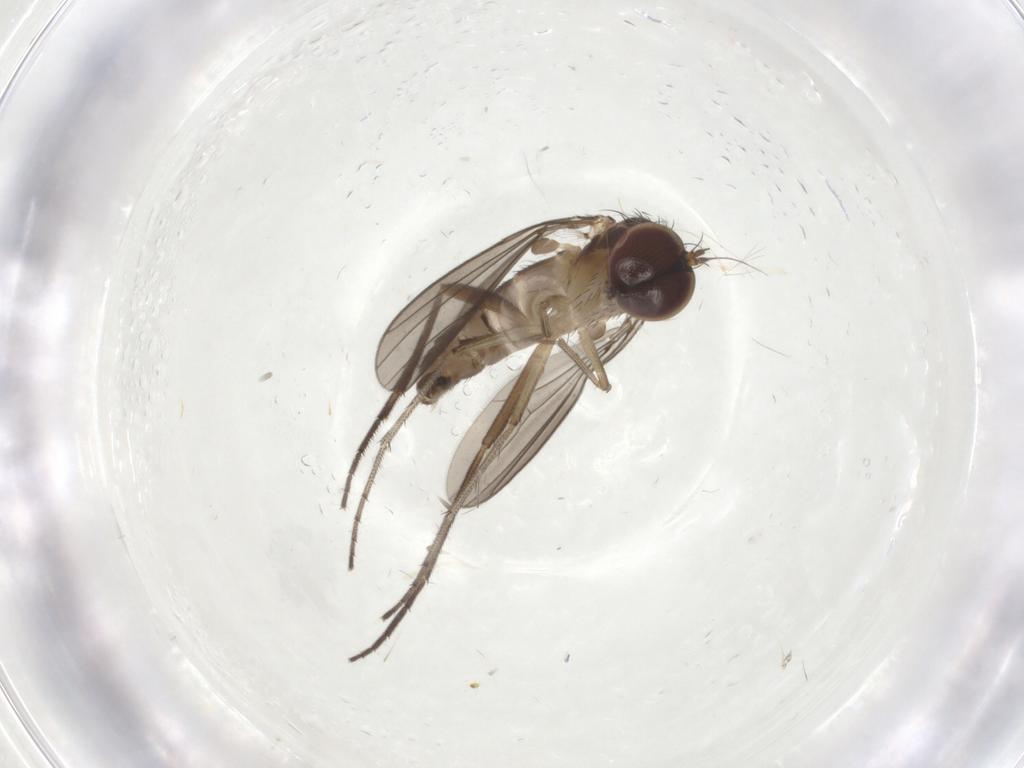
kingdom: Animalia
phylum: Arthropoda
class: Insecta
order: Diptera
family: Dolichopodidae
